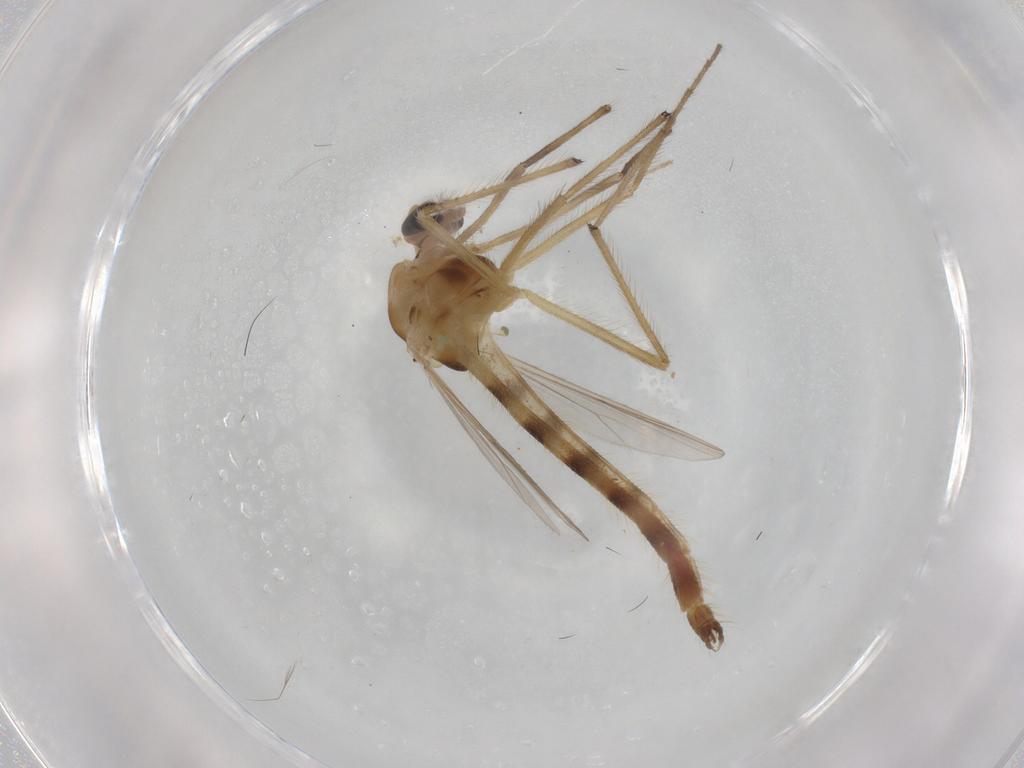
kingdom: Animalia
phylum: Arthropoda
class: Insecta
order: Diptera
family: Chironomidae
